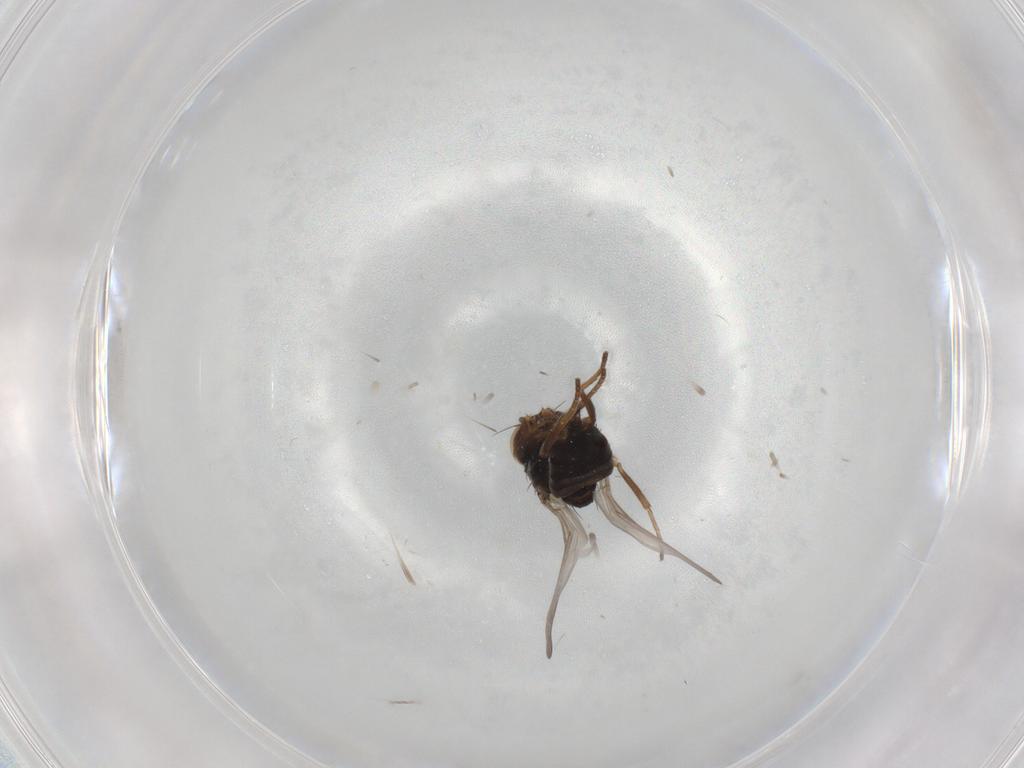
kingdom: Animalia
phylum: Arthropoda
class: Insecta
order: Diptera
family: Chloropidae
